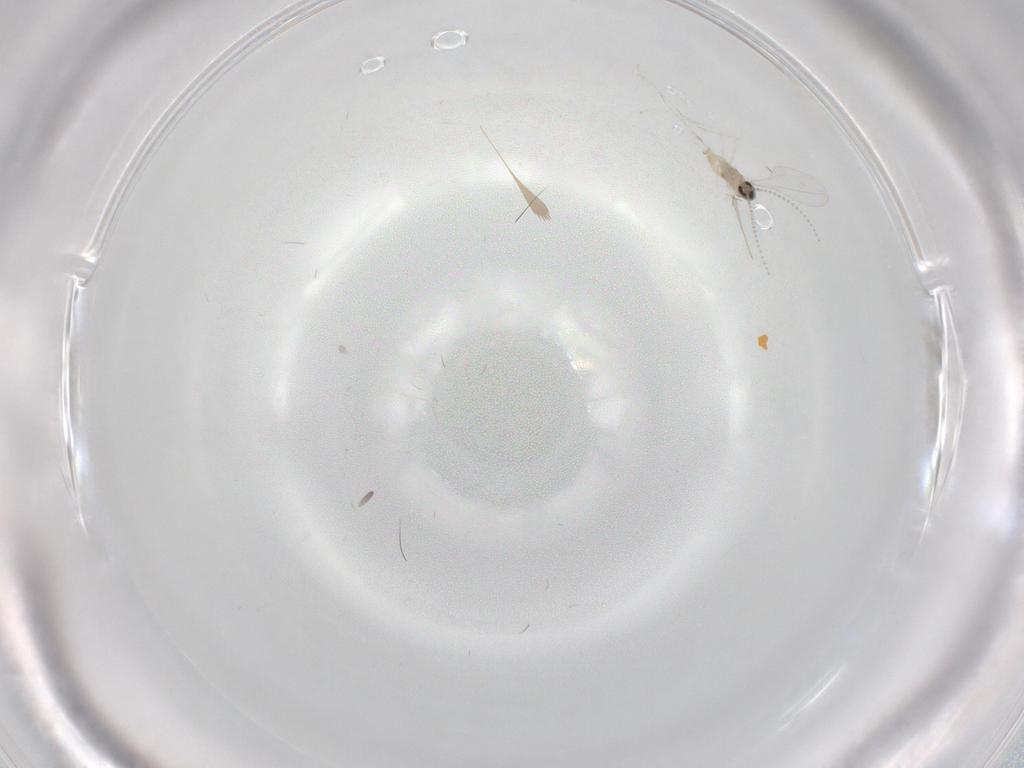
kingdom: Animalia
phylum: Arthropoda
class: Insecta
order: Diptera
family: Cecidomyiidae
